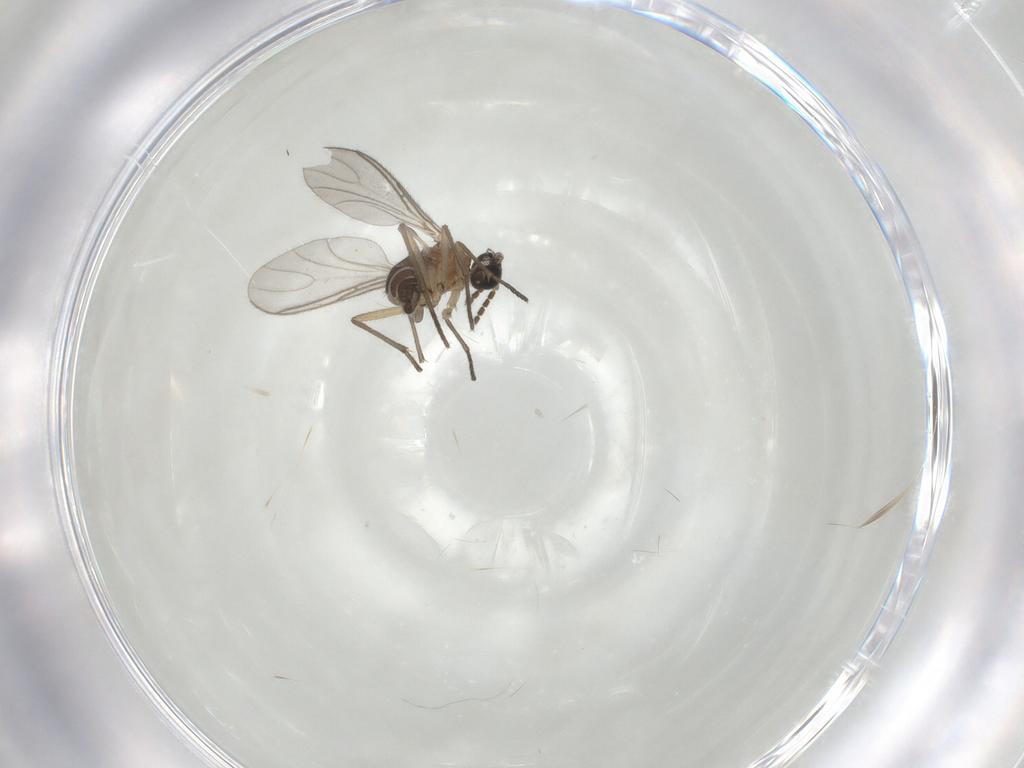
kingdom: Animalia
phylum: Arthropoda
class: Insecta
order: Diptera
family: Sciaridae
